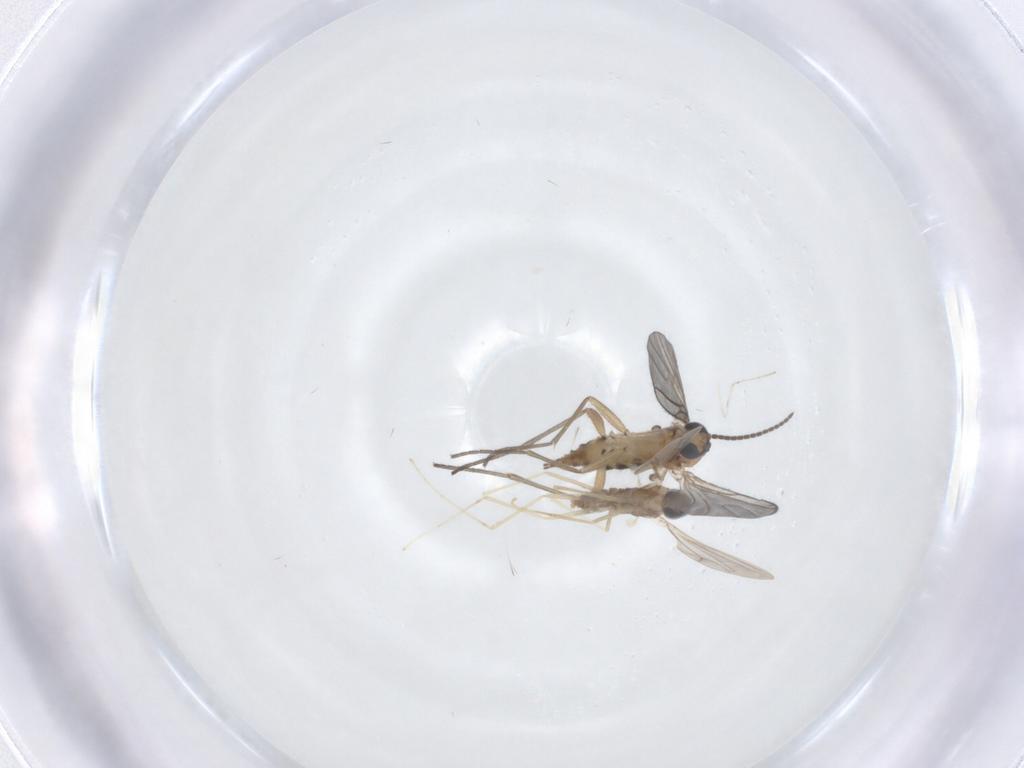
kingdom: Animalia
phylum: Arthropoda
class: Insecta
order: Diptera
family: Cecidomyiidae
